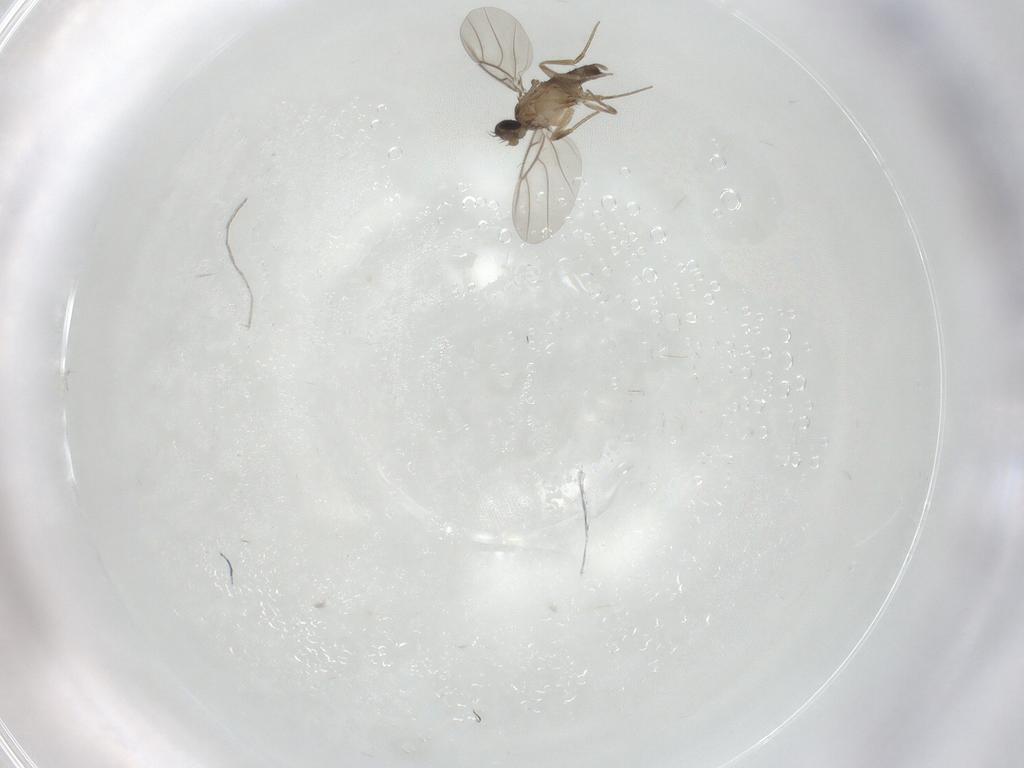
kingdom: Animalia
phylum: Arthropoda
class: Insecta
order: Diptera
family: Phoridae
